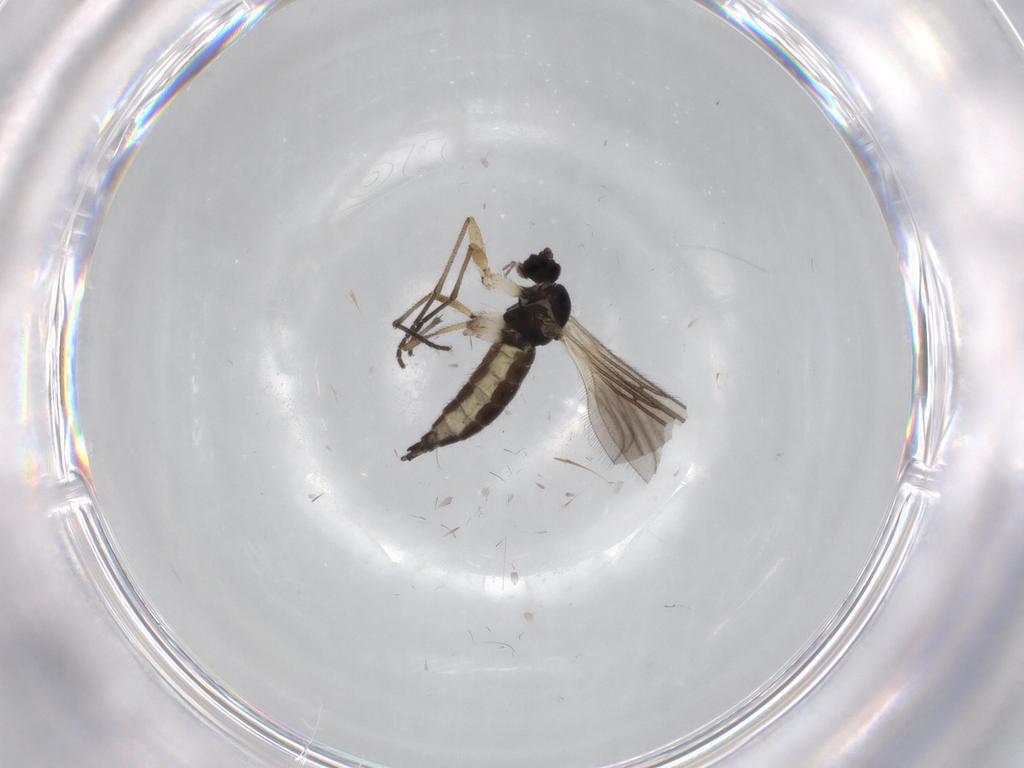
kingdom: Animalia
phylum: Arthropoda
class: Insecta
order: Diptera
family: Sciaridae
